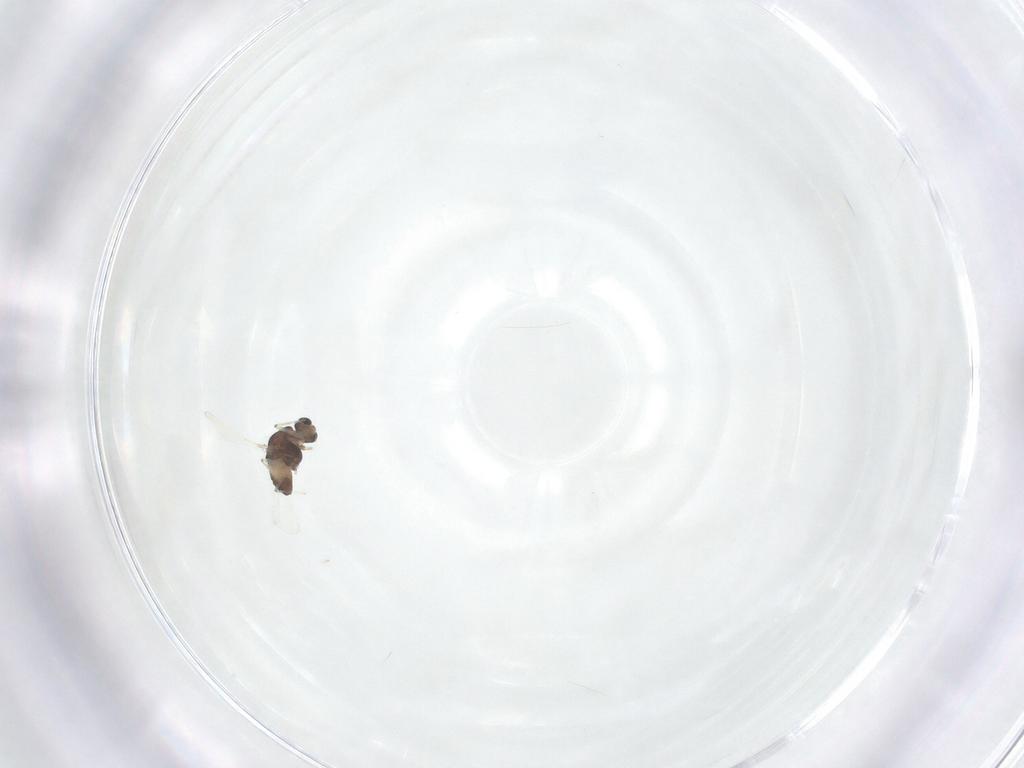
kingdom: Animalia
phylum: Arthropoda
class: Insecta
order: Diptera
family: Chironomidae
